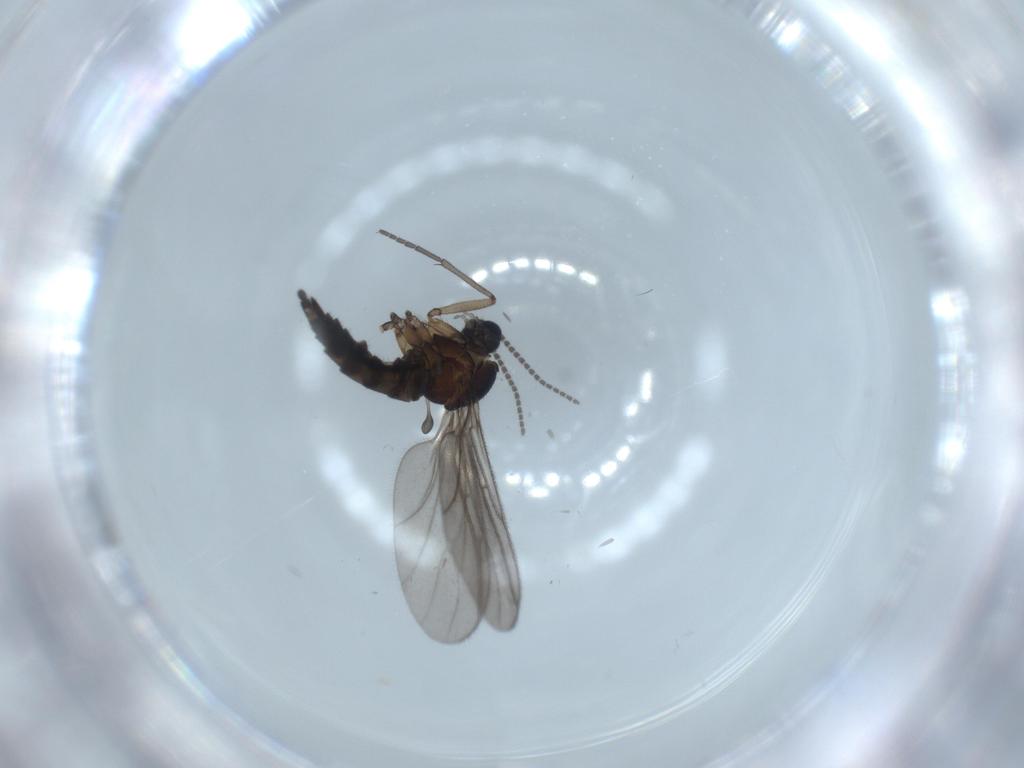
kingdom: Animalia
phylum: Arthropoda
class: Insecta
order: Diptera
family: Sciaridae
